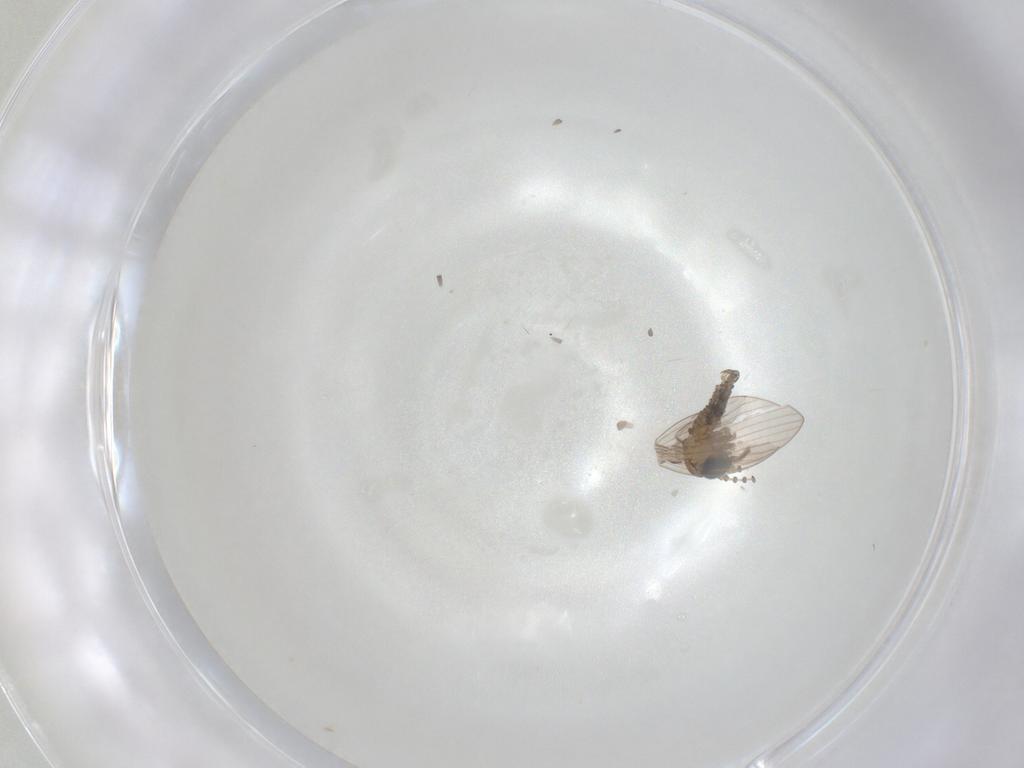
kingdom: Animalia
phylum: Arthropoda
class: Insecta
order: Diptera
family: Psychodidae
